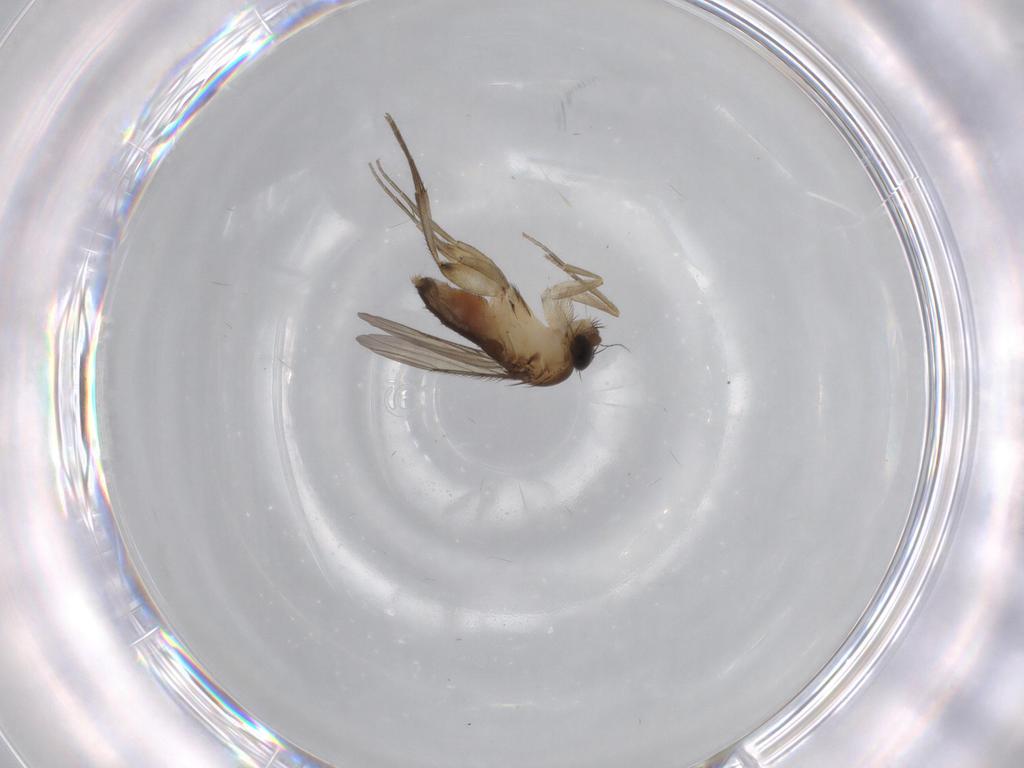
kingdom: Animalia
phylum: Arthropoda
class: Insecta
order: Diptera
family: Phoridae
